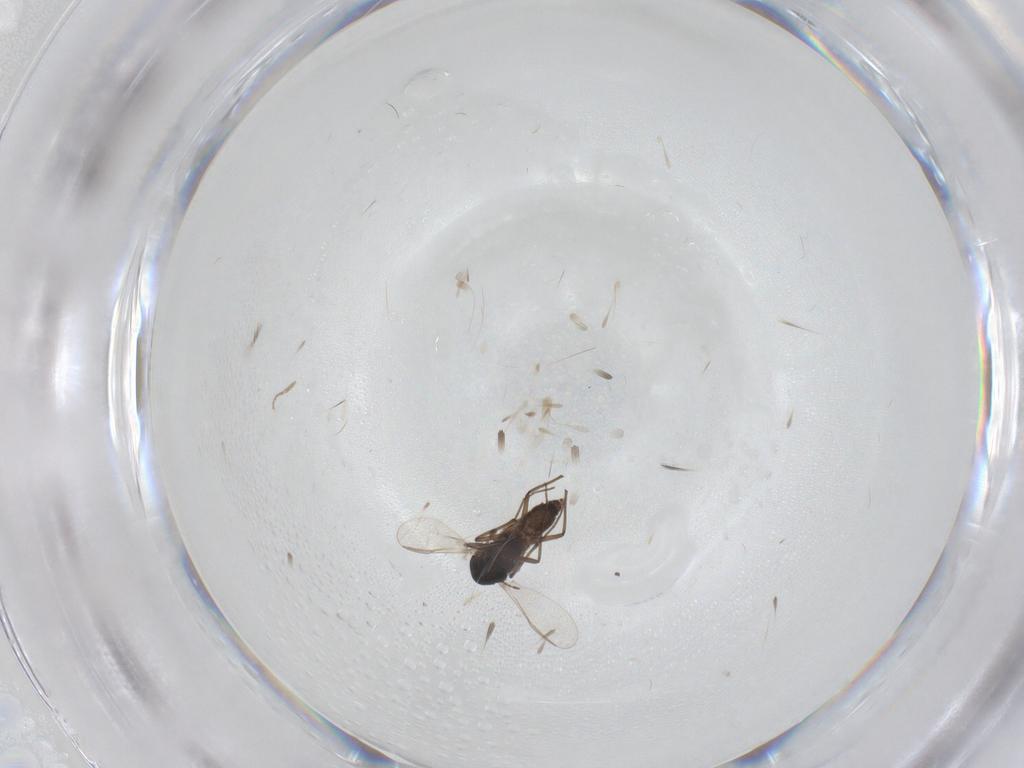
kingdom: Animalia
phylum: Arthropoda
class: Insecta
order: Diptera
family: Chironomidae
